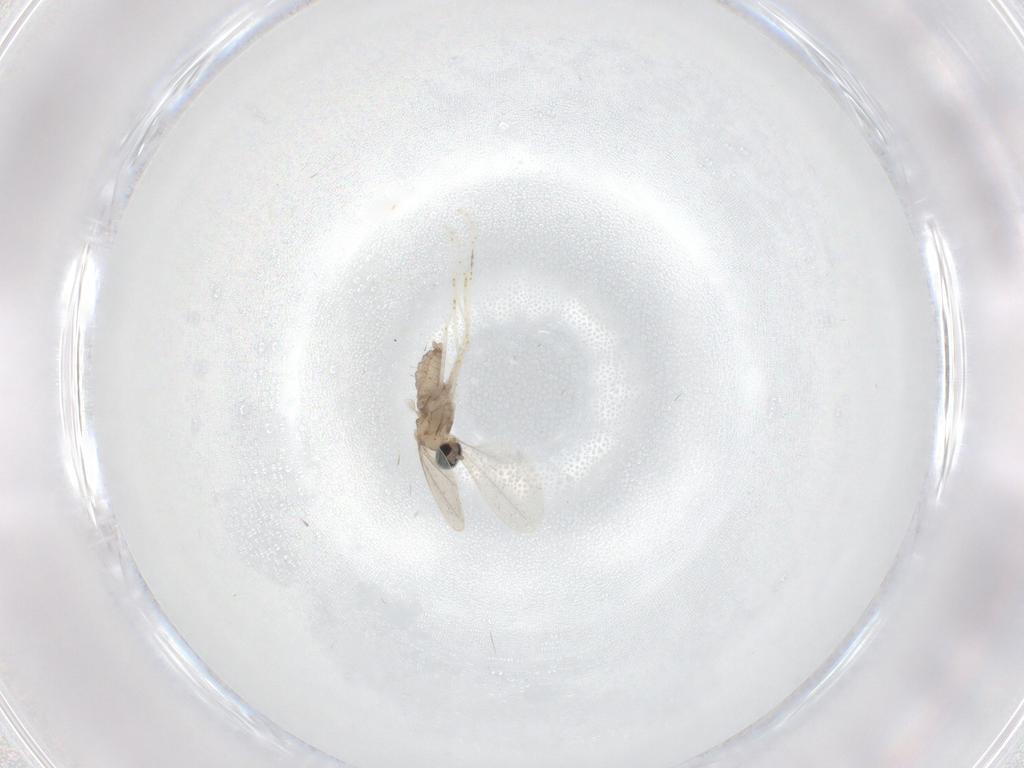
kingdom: Animalia
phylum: Arthropoda
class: Insecta
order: Diptera
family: Cecidomyiidae
